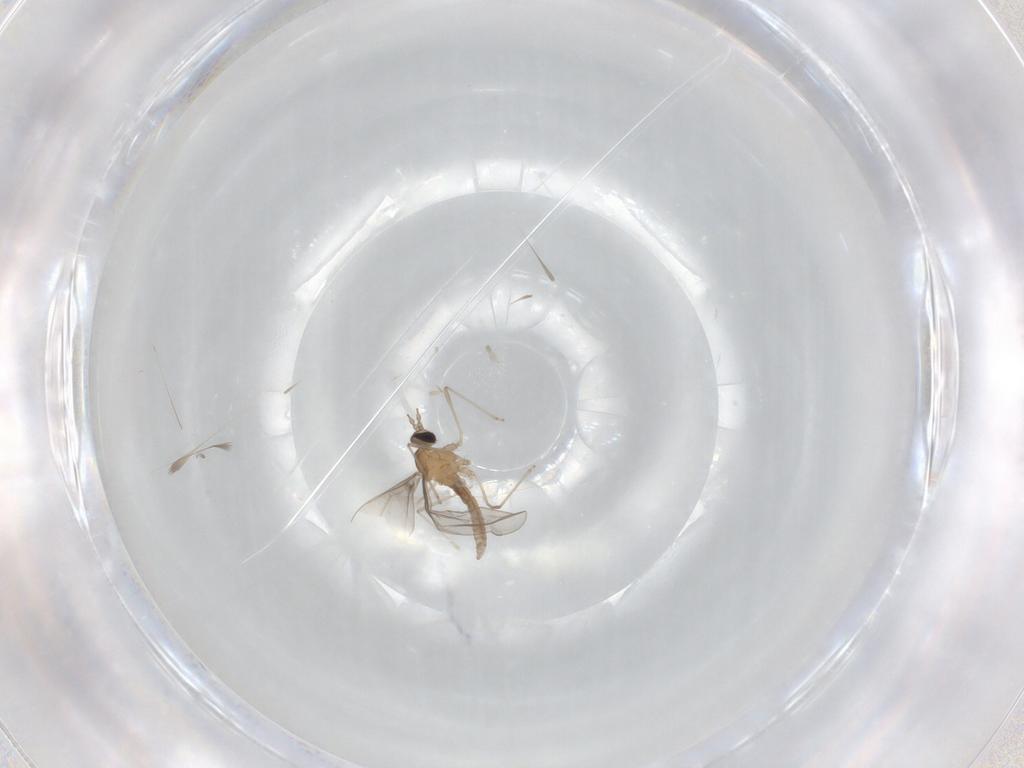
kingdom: Animalia
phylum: Arthropoda
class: Insecta
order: Diptera
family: Cecidomyiidae
